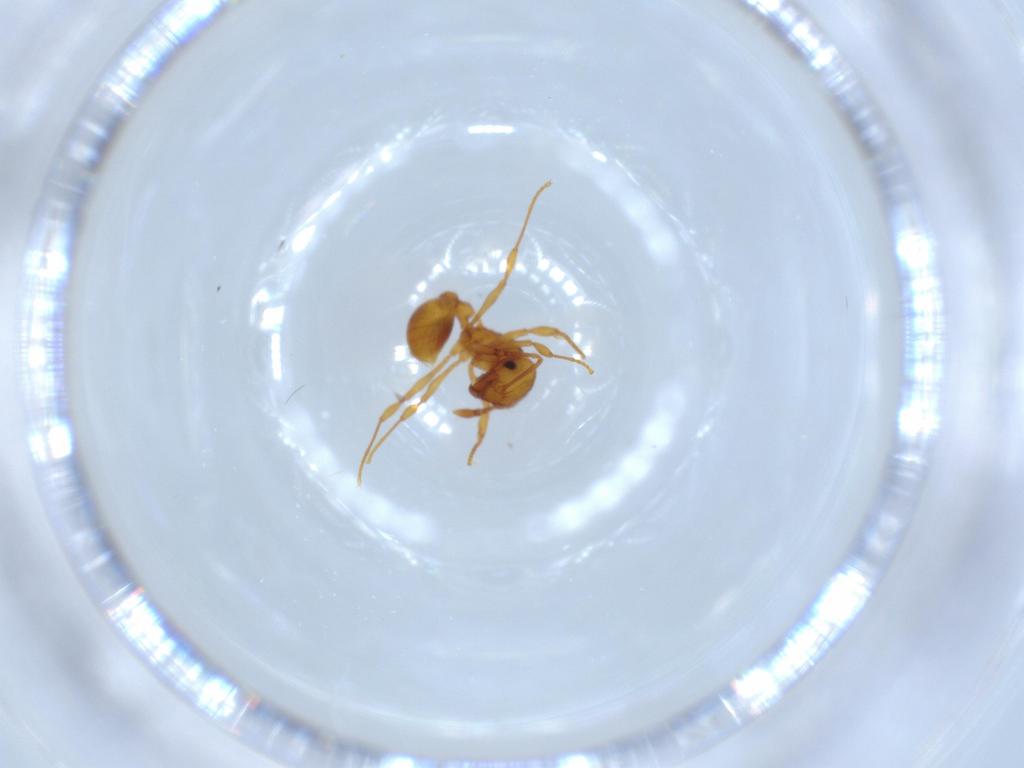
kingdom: Animalia
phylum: Arthropoda
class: Insecta
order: Hymenoptera
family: Formicidae
